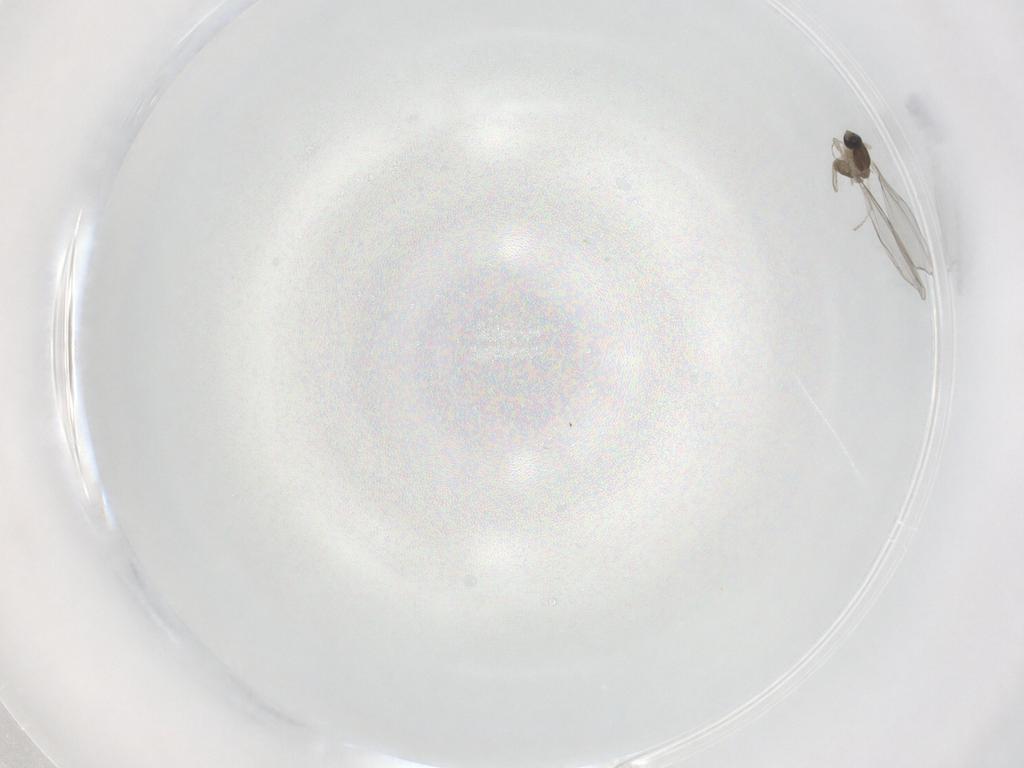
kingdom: Animalia
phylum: Arthropoda
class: Insecta
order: Diptera
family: Cecidomyiidae
